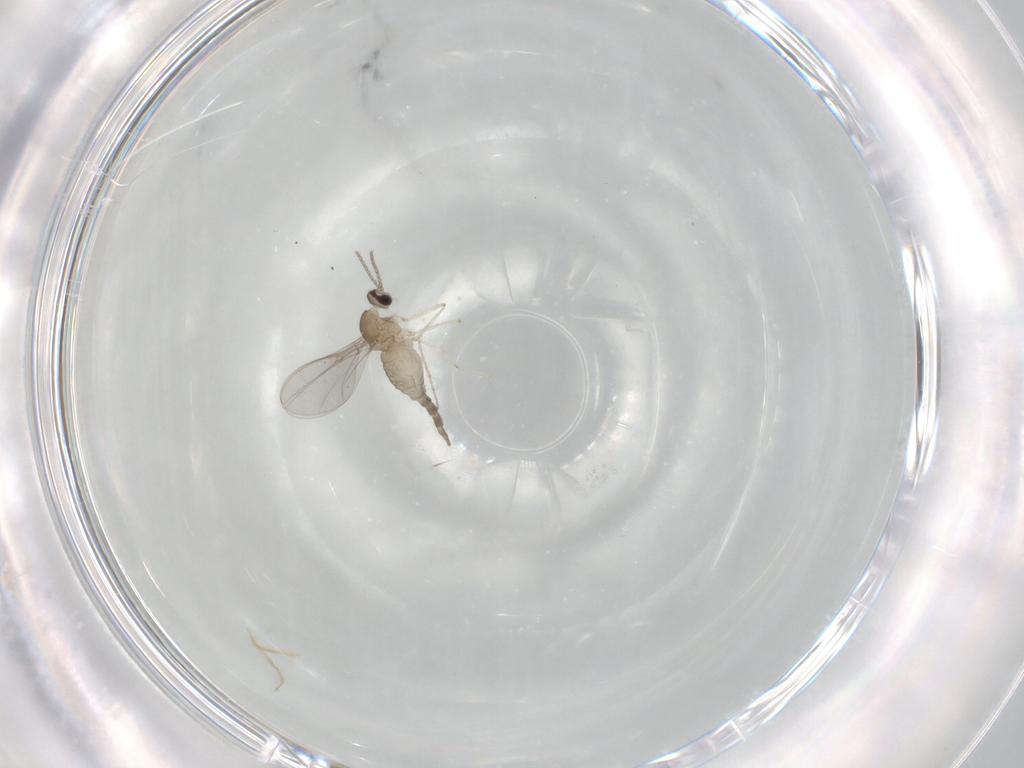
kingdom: Animalia
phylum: Arthropoda
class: Insecta
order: Diptera
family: Cecidomyiidae
